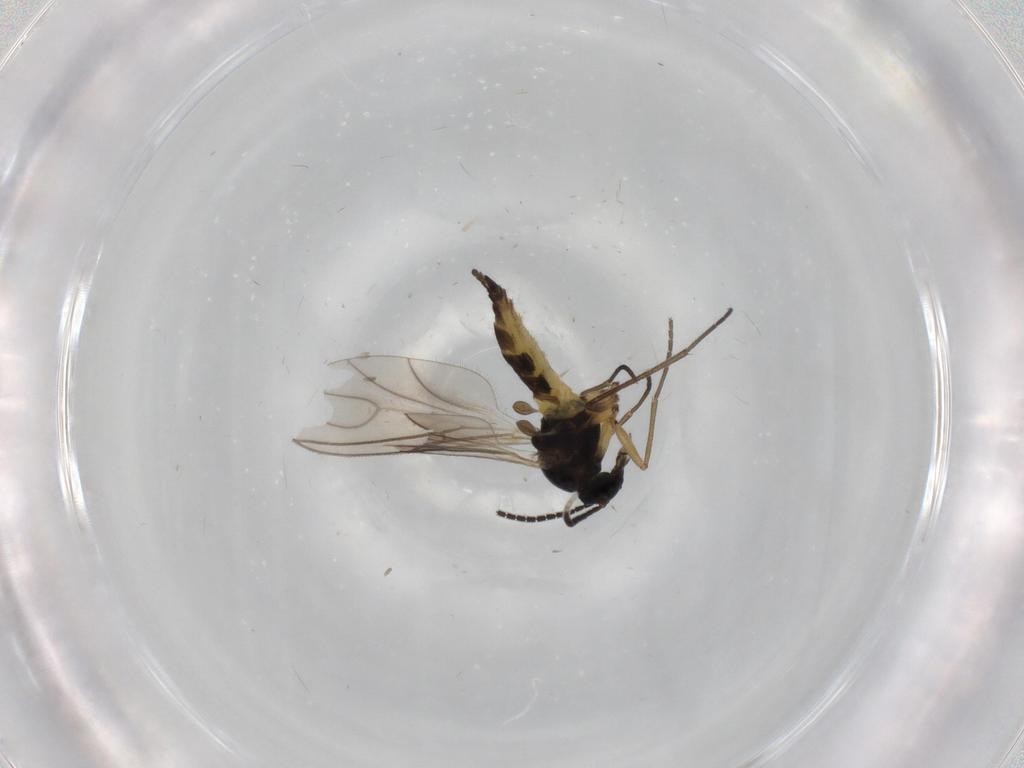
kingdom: Animalia
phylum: Arthropoda
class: Insecta
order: Diptera
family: Sciaridae
